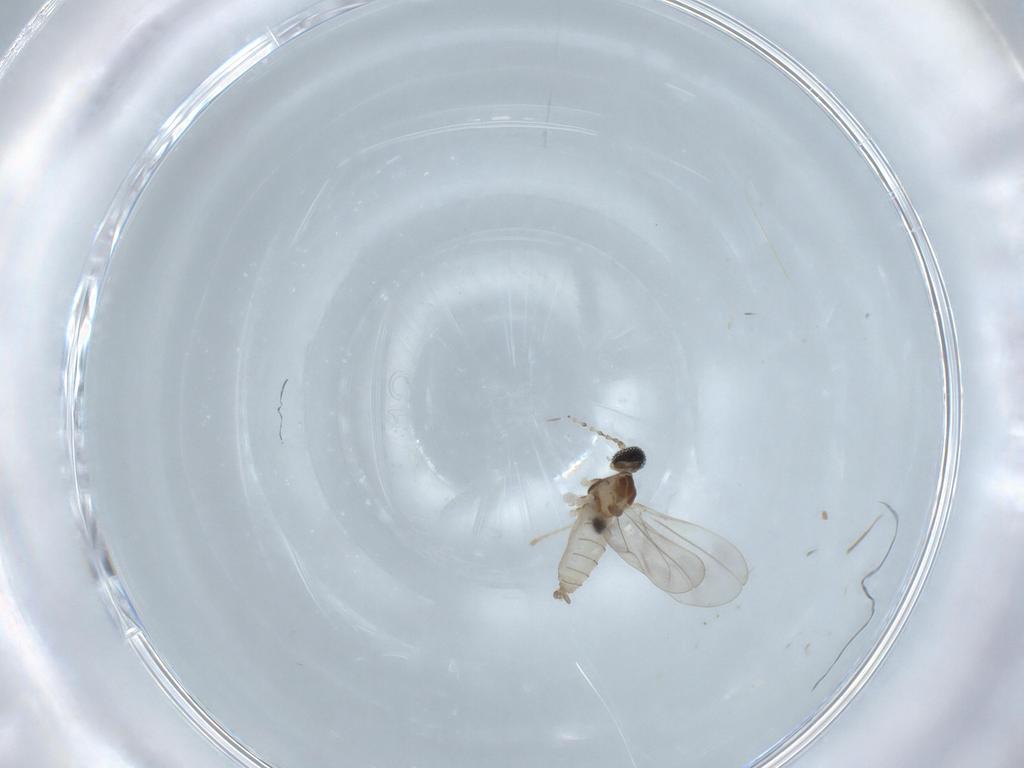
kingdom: Animalia
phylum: Arthropoda
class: Insecta
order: Diptera
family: Sciaridae
